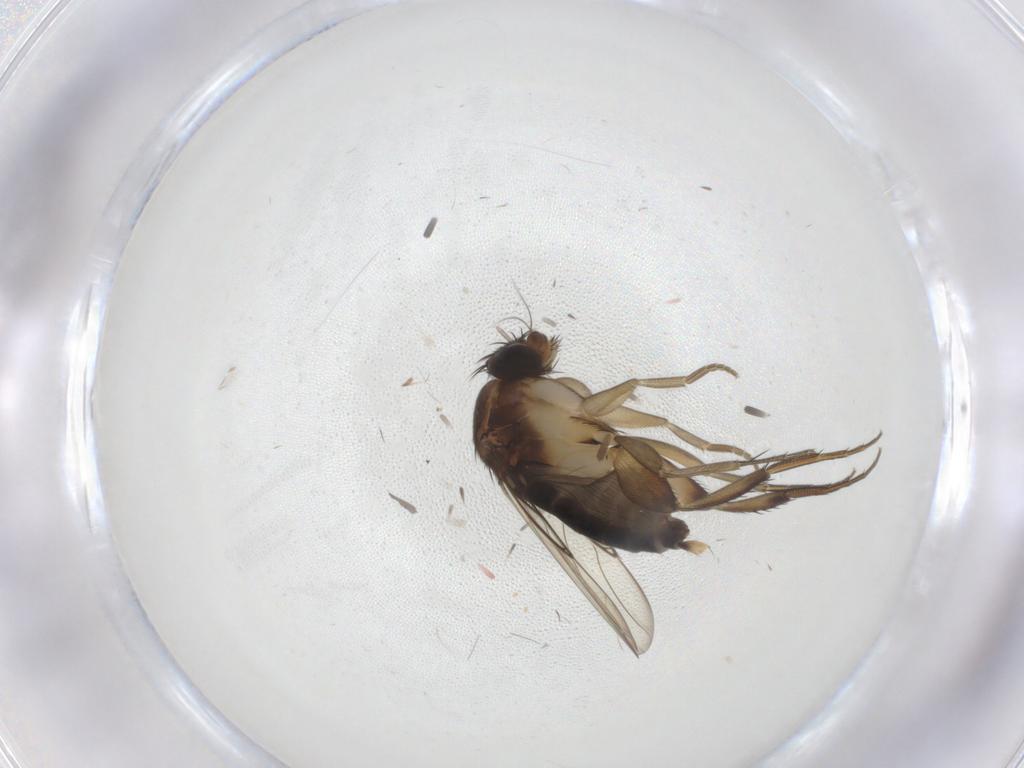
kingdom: Animalia
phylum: Arthropoda
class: Insecta
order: Diptera
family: Phoridae
